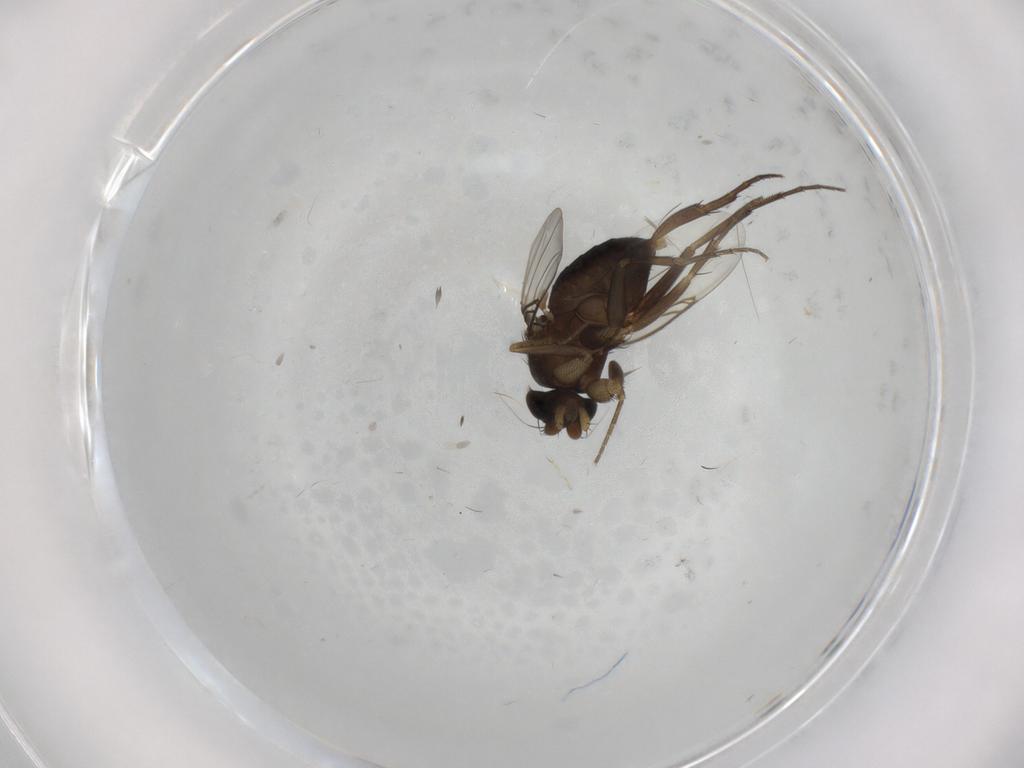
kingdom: Animalia
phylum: Arthropoda
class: Insecta
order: Diptera
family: Phoridae
